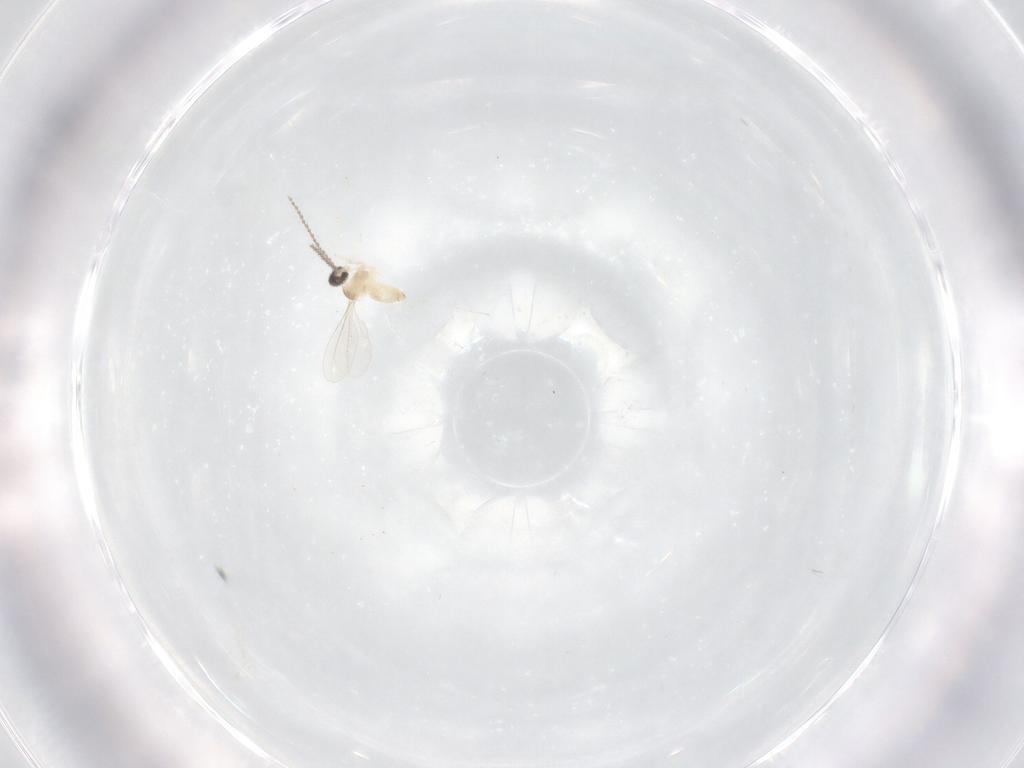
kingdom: Animalia
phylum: Arthropoda
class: Insecta
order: Diptera
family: Cecidomyiidae
